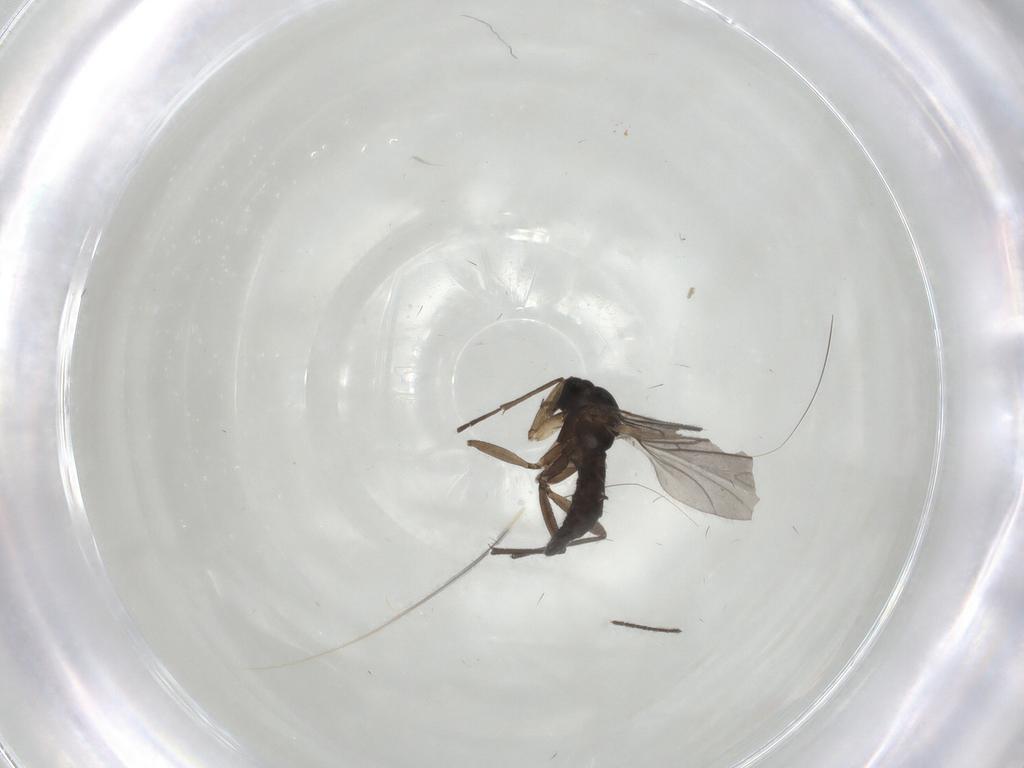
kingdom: Animalia
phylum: Arthropoda
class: Insecta
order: Diptera
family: Sciaridae
